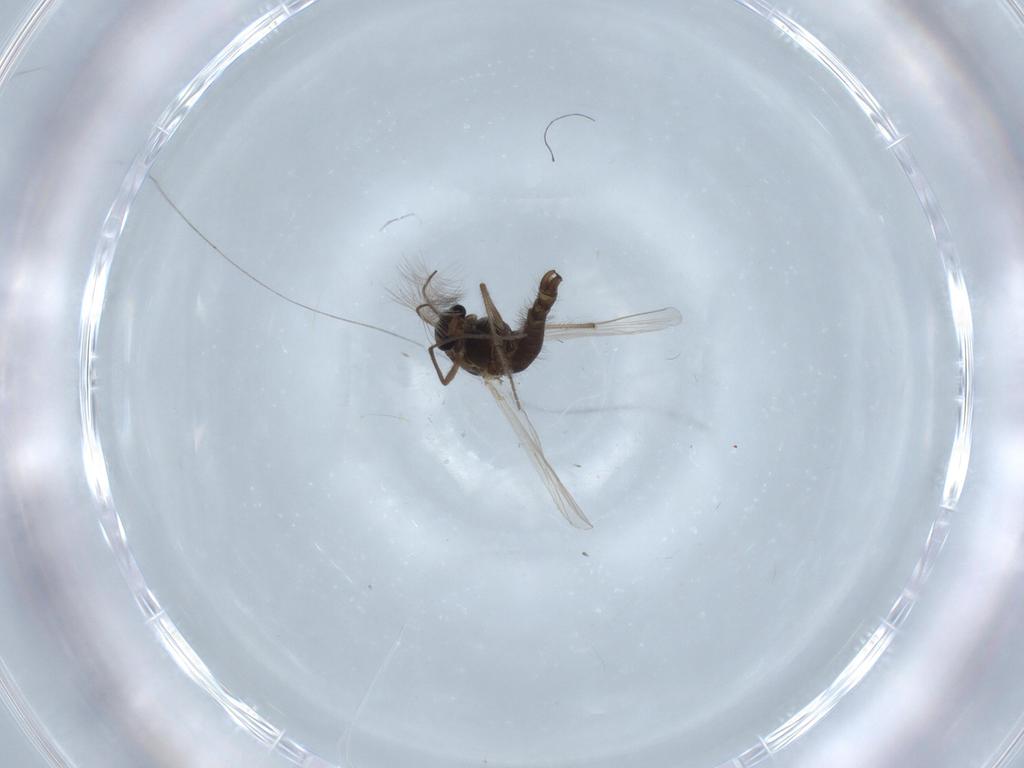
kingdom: Animalia
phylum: Arthropoda
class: Insecta
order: Diptera
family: Chironomidae
